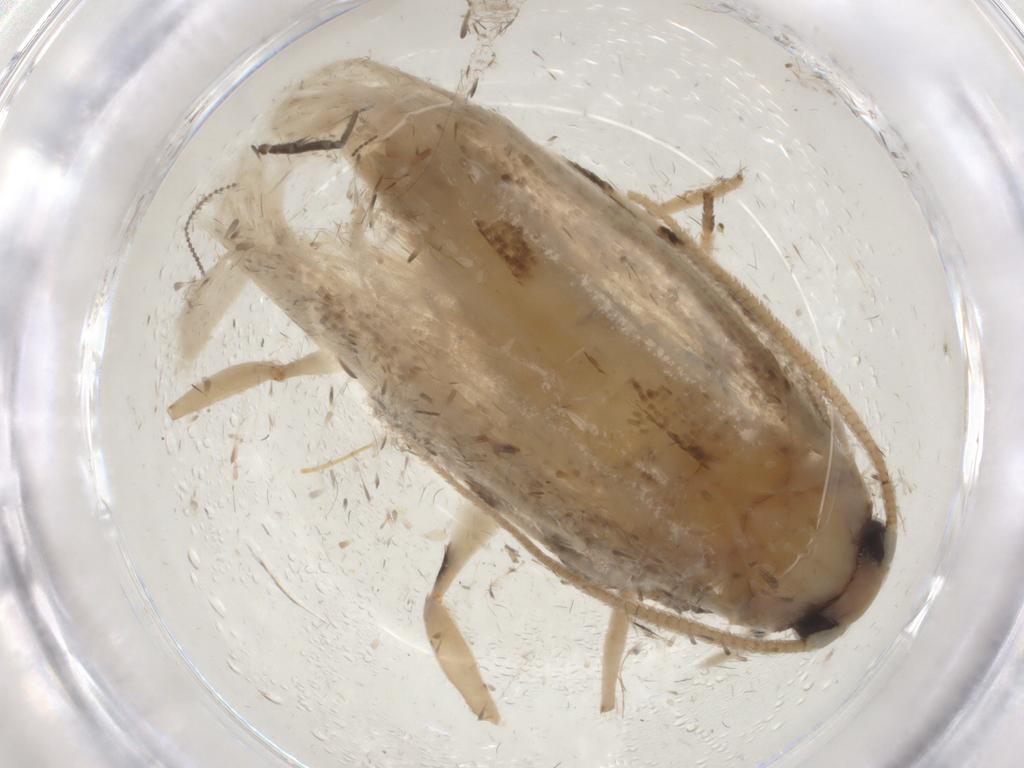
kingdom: Animalia
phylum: Arthropoda
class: Insecta
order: Lepidoptera
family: Tineidae
